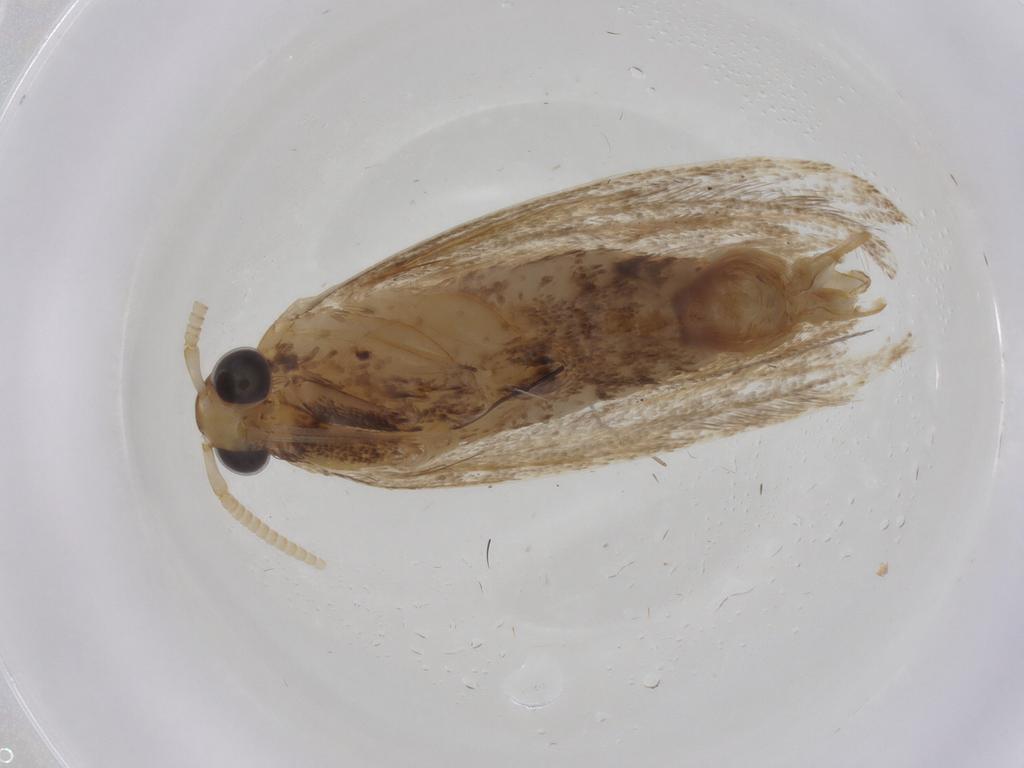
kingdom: Animalia
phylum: Arthropoda
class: Insecta
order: Lepidoptera
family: Lecithoceridae
